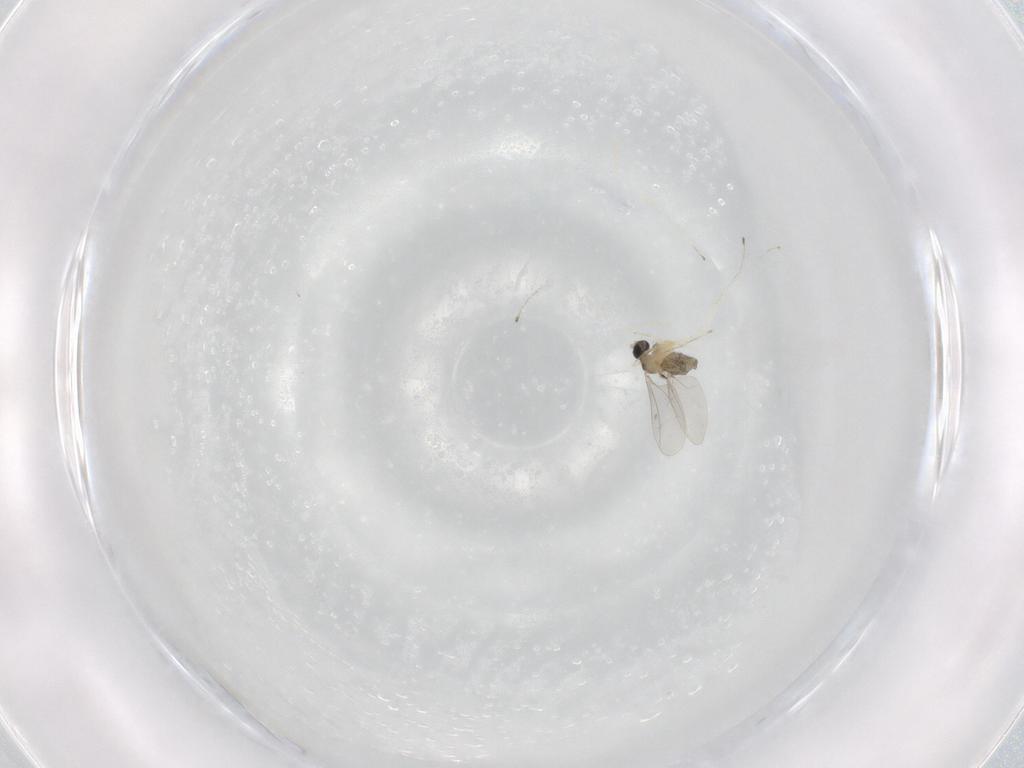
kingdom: Animalia
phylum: Arthropoda
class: Insecta
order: Diptera
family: Cecidomyiidae
